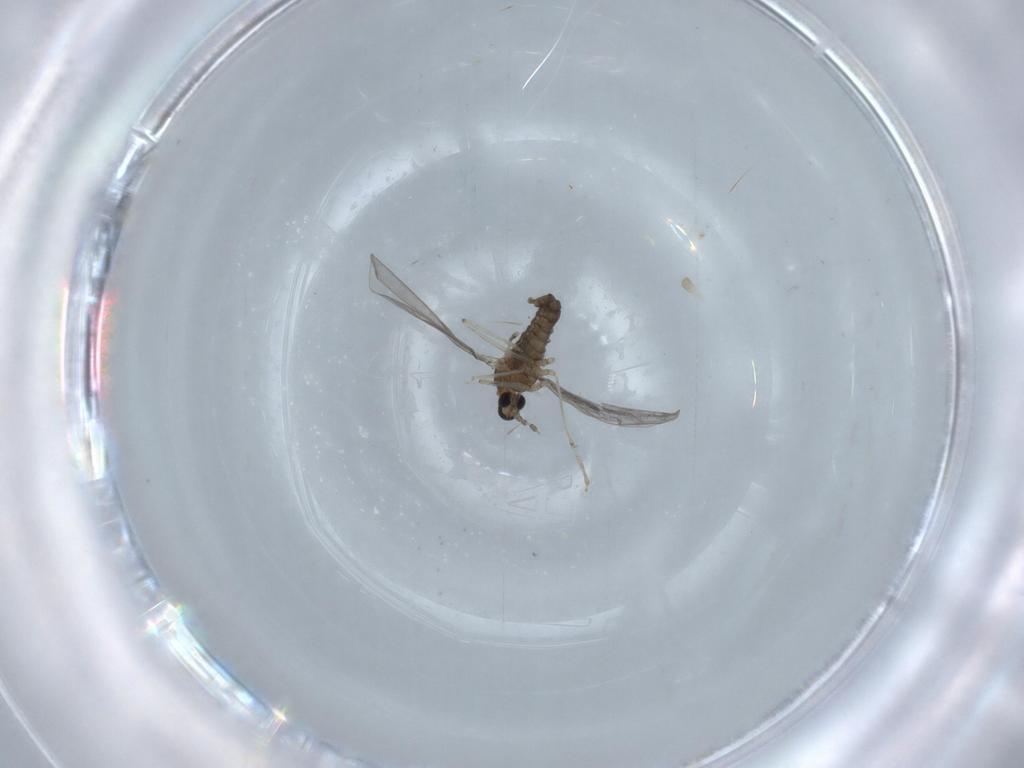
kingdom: Animalia
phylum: Arthropoda
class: Insecta
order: Diptera
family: Cecidomyiidae
